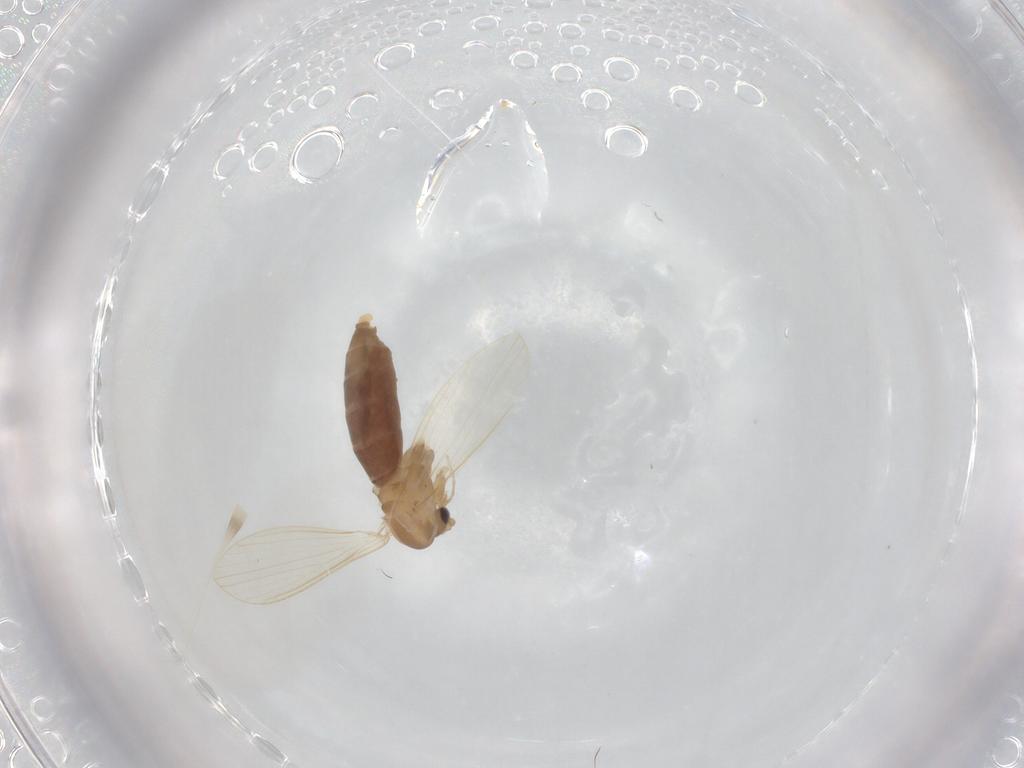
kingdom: Animalia
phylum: Arthropoda
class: Insecta
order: Diptera
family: Psychodidae
